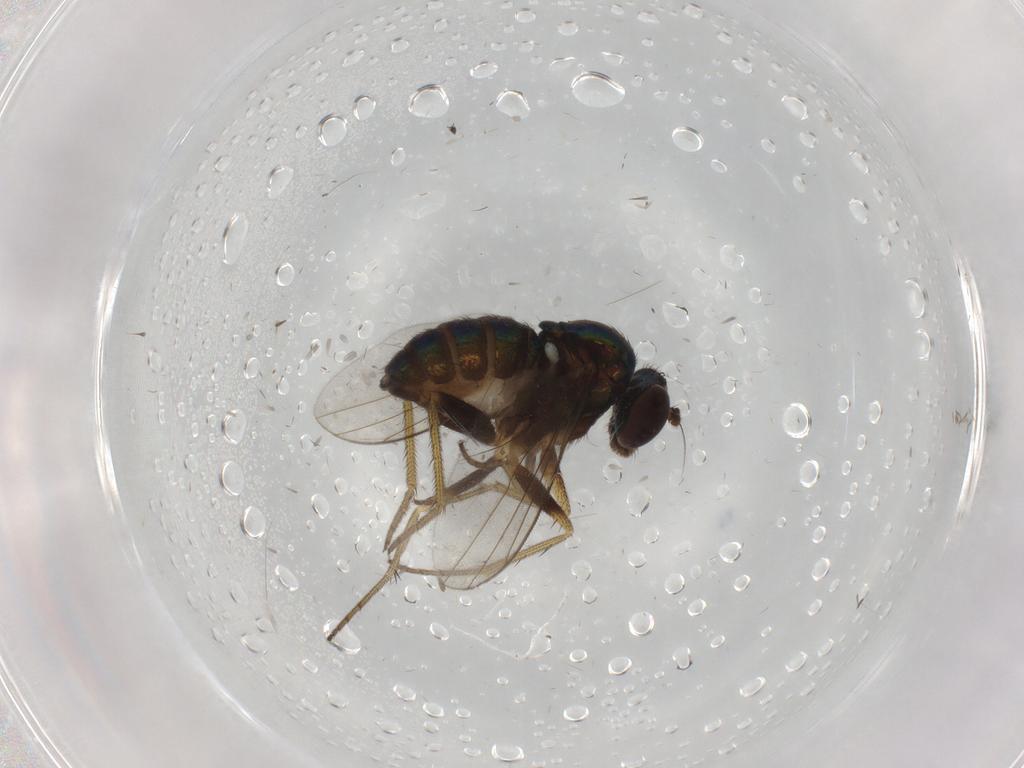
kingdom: Animalia
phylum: Arthropoda
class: Insecta
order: Diptera
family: Dolichopodidae
